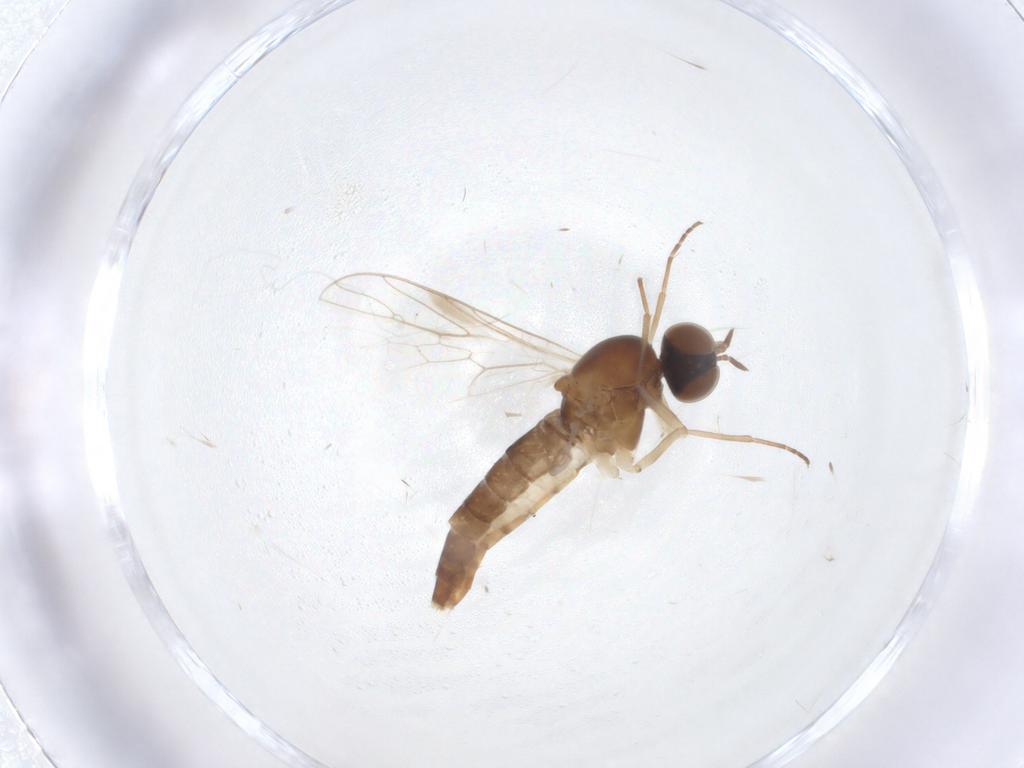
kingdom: Animalia
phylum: Arthropoda
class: Insecta
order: Diptera
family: Scenopinidae
